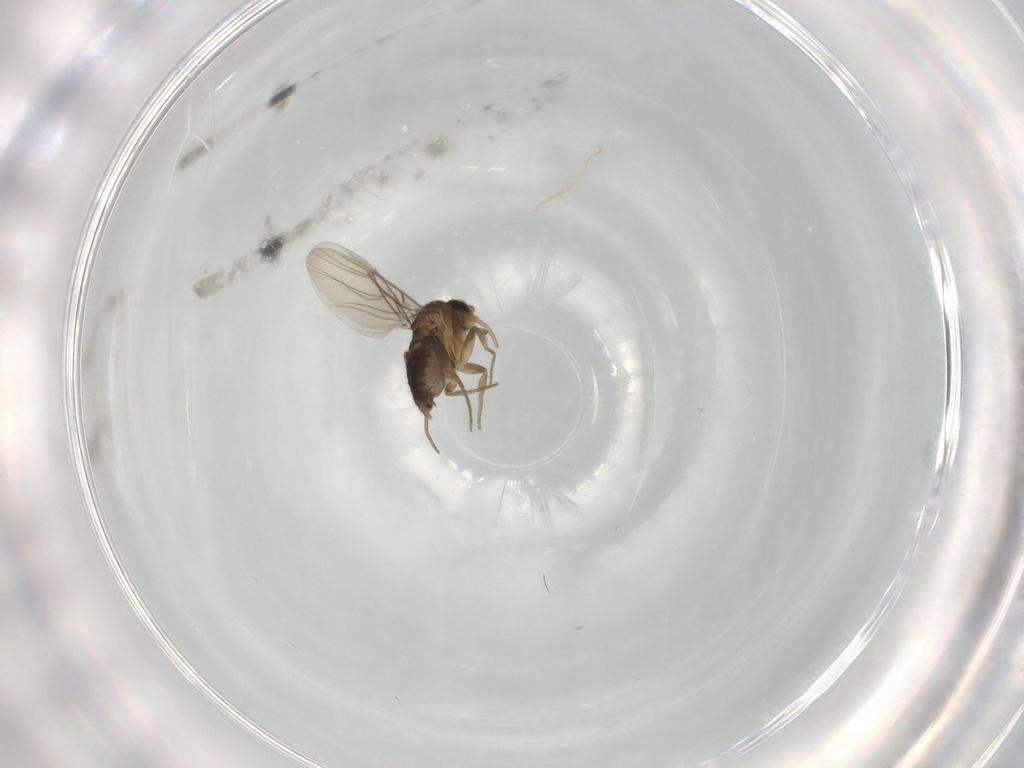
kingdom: Animalia
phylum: Arthropoda
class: Insecta
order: Diptera
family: Phoridae
